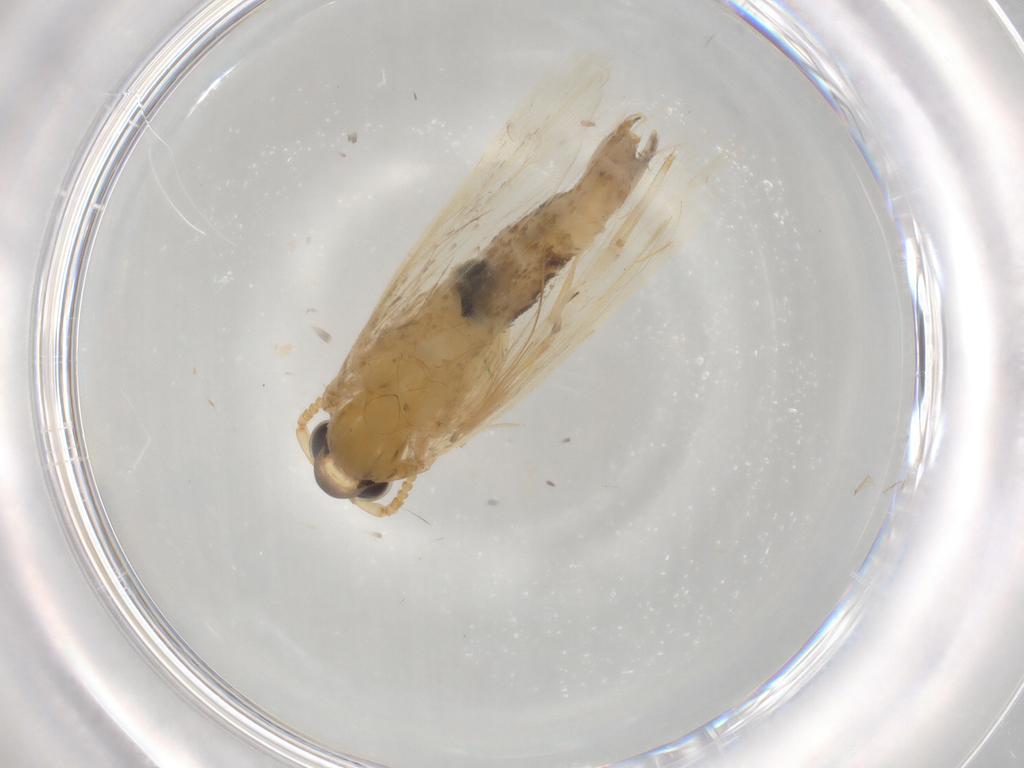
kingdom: Animalia
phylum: Arthropoda
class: Insecta
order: Lepidoptera
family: Lecithoceridae
